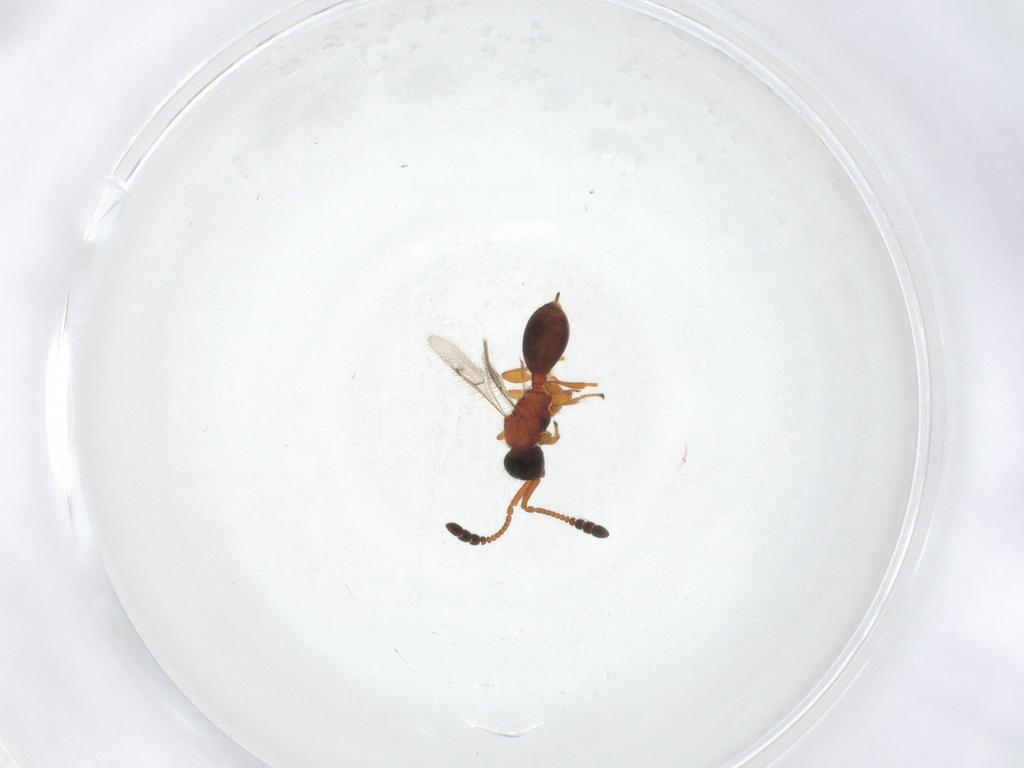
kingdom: Animalia
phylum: Arthropoda
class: Insecta
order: Hymenoptera
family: Diapriidae
